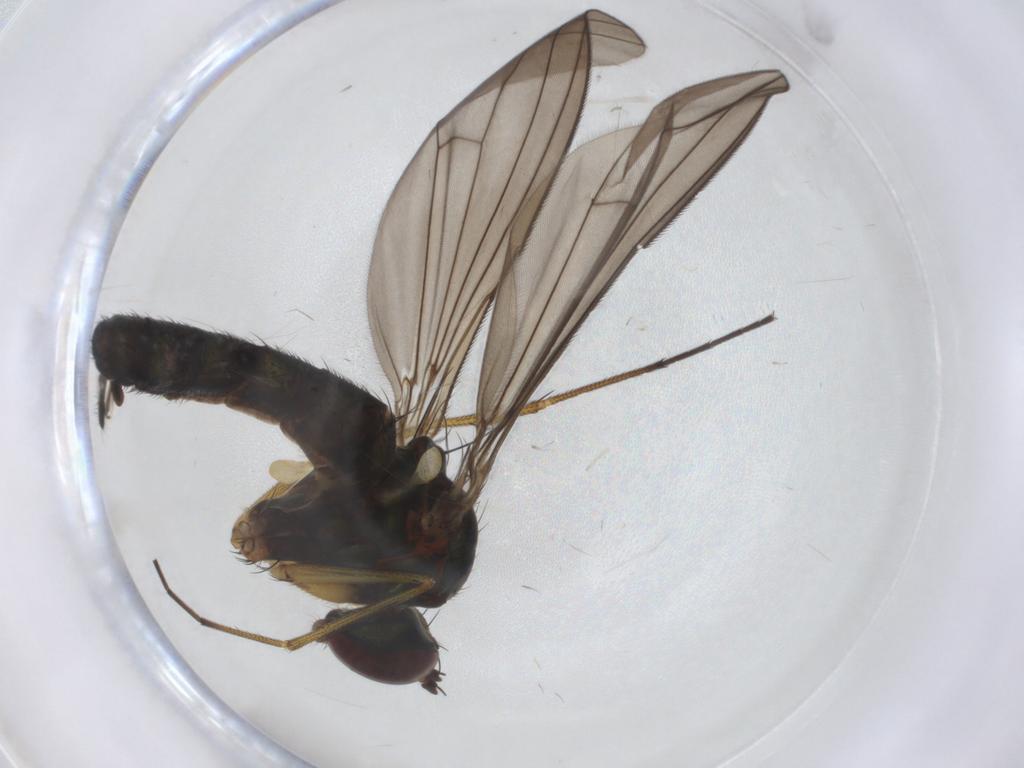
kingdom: Animalia
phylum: Arthropoda
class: Insecta
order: Diptera
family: Dolichopodidae
